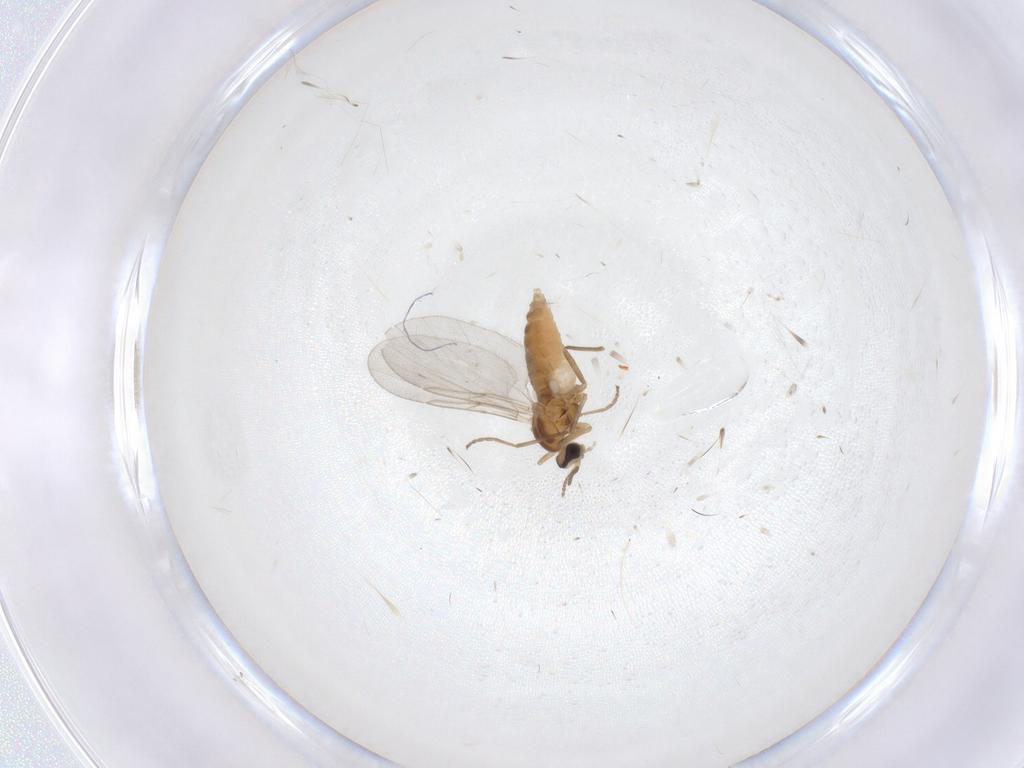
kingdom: Animalia
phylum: Arthropoda
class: Insecta
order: Diptera
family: Cecidomyiidae
